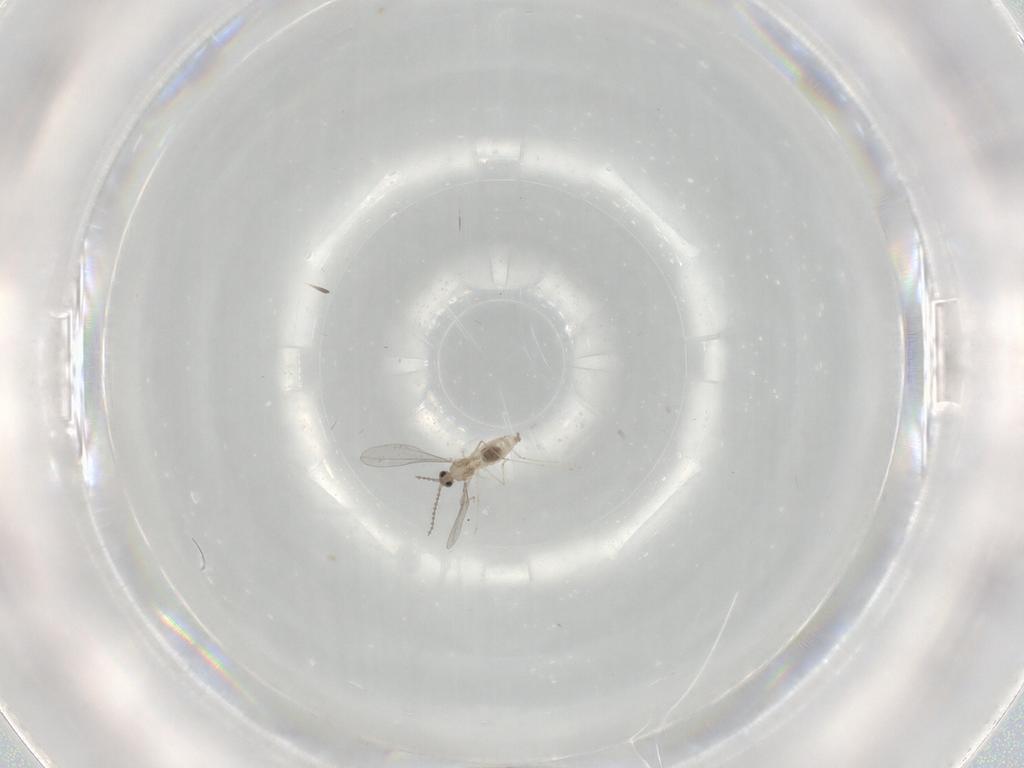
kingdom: Animalia
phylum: Arthropoda
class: Insecta
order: Diptera
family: Cecidomyiidae
